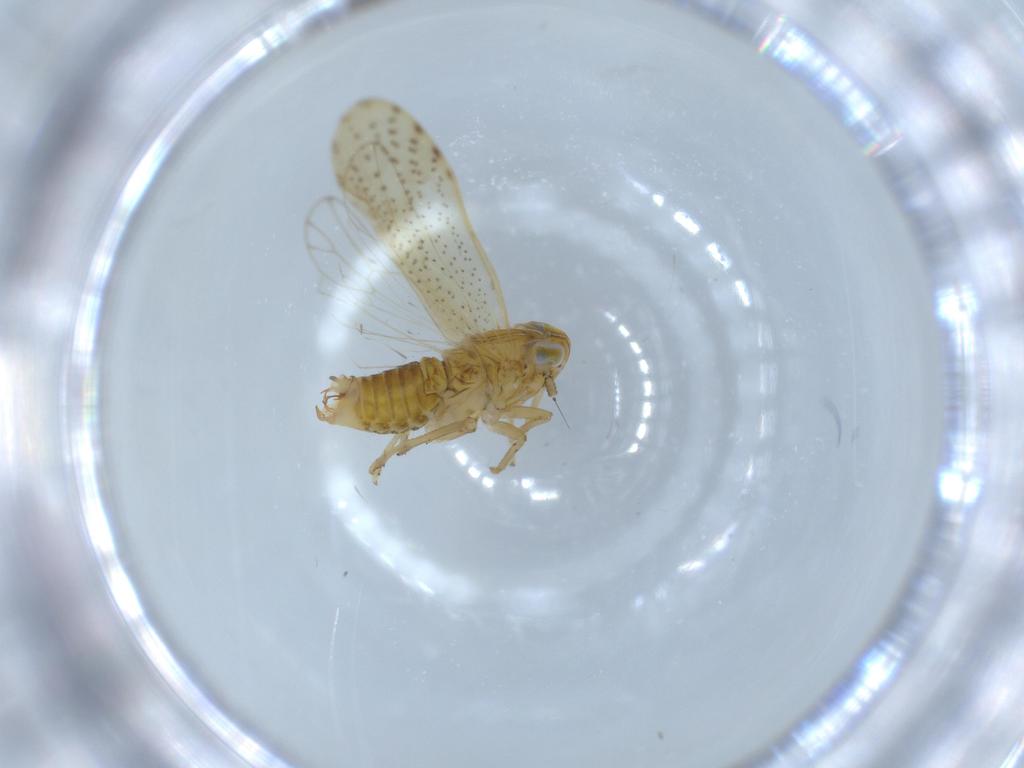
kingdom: Animalia
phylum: Arthropoda
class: Insecta
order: Hemiptera
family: Delphacidae
